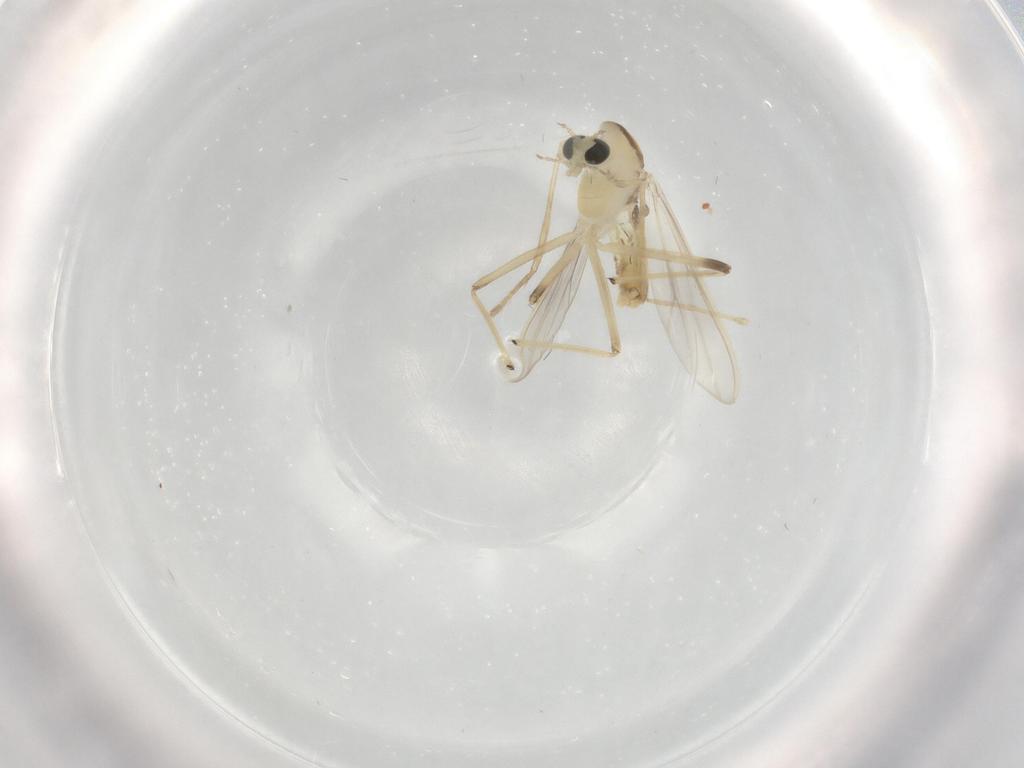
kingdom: Animalia
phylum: Arthropoda
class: Insecta
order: Diptera
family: Chironomidae
